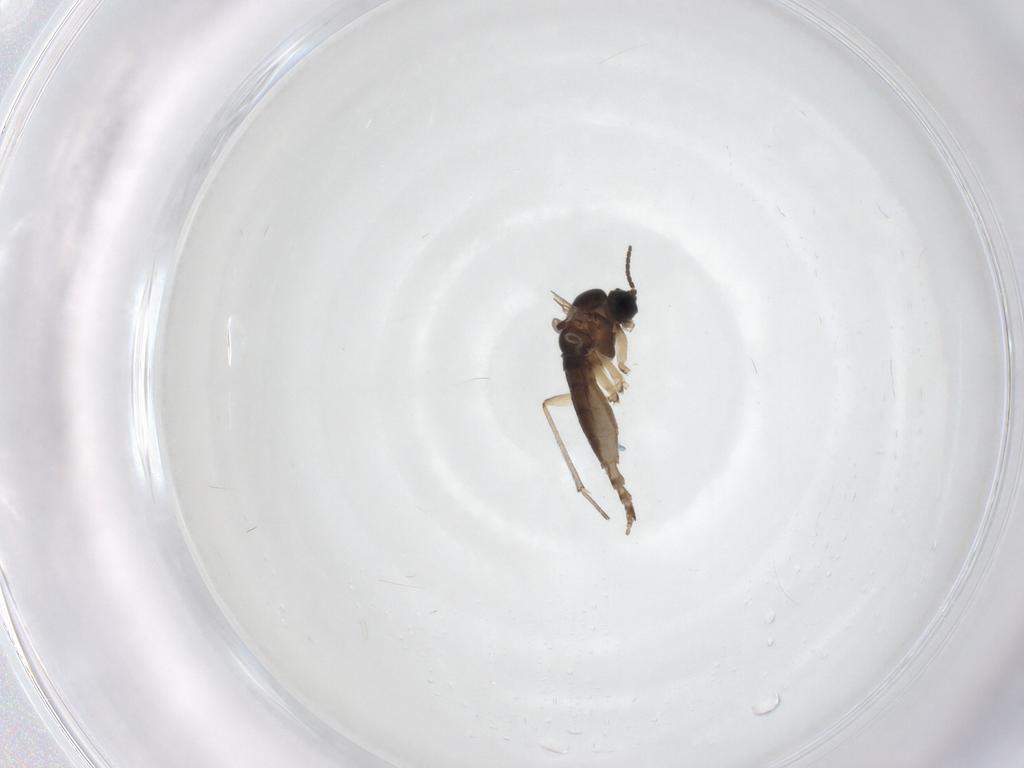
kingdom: Animalia
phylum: Arthropoda
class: Insecta
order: Diptera
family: Sciaridae
